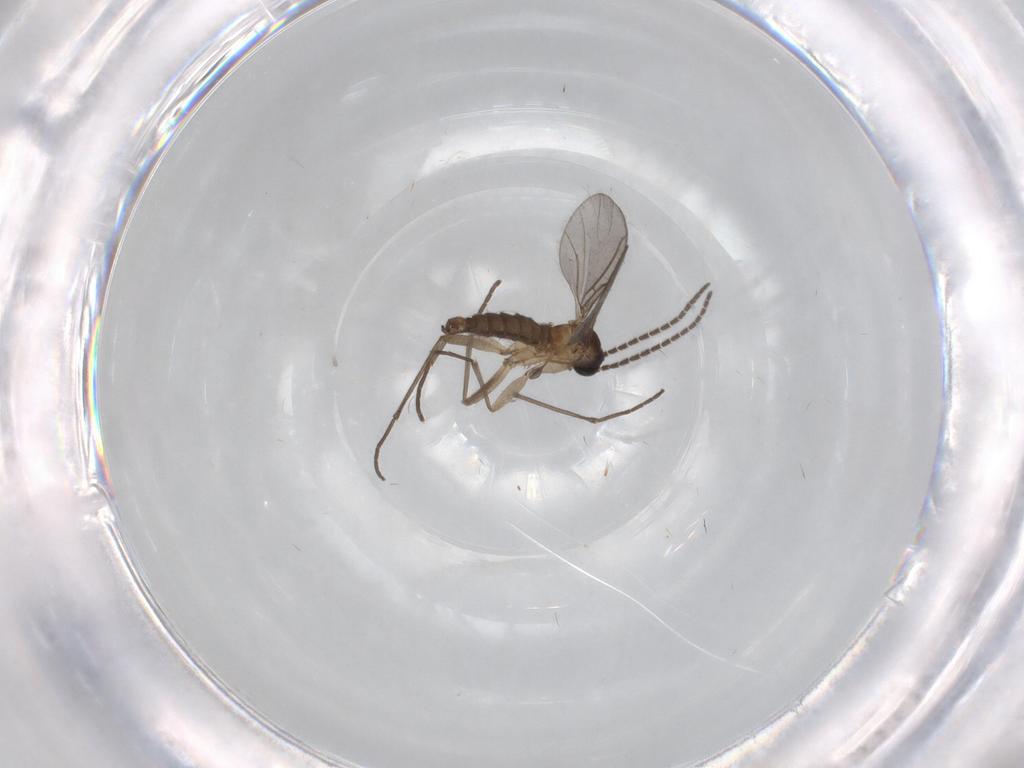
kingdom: Animalia
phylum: Arthropoda
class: Insecta
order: Diptera
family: Sciaridae
